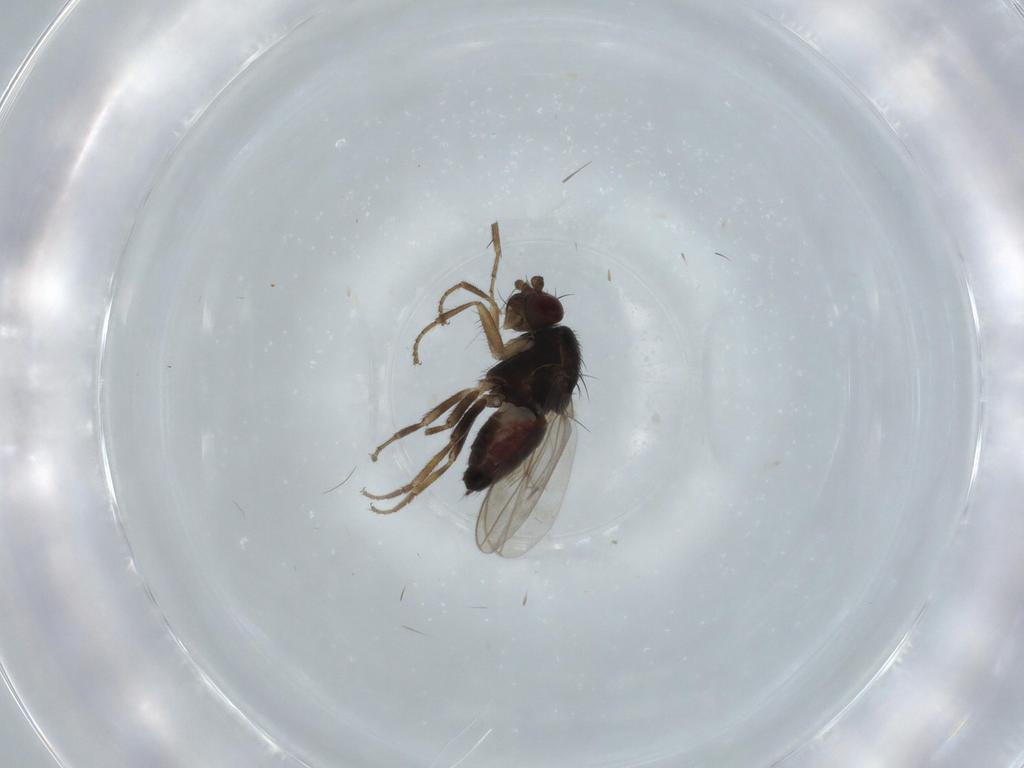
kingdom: Animalia
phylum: Arthropoda
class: Insecta
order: Diptera
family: Sphaeroceridae
